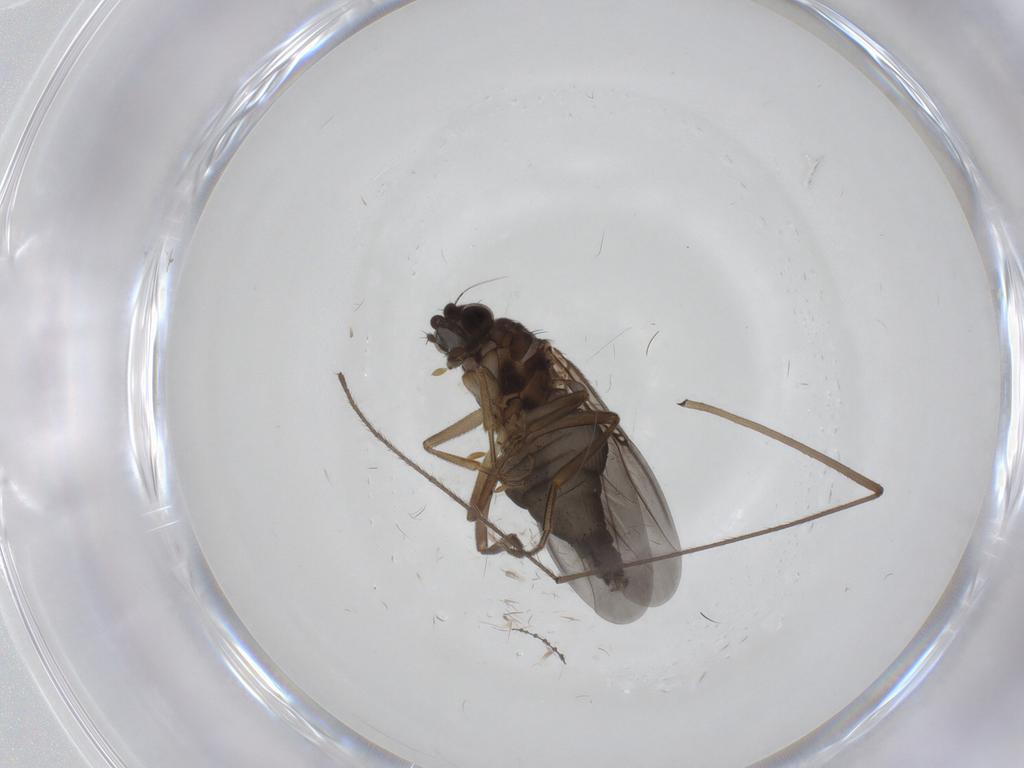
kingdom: Animalia
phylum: Arthropoda
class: Insecta
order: Diptera
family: Phoridae
